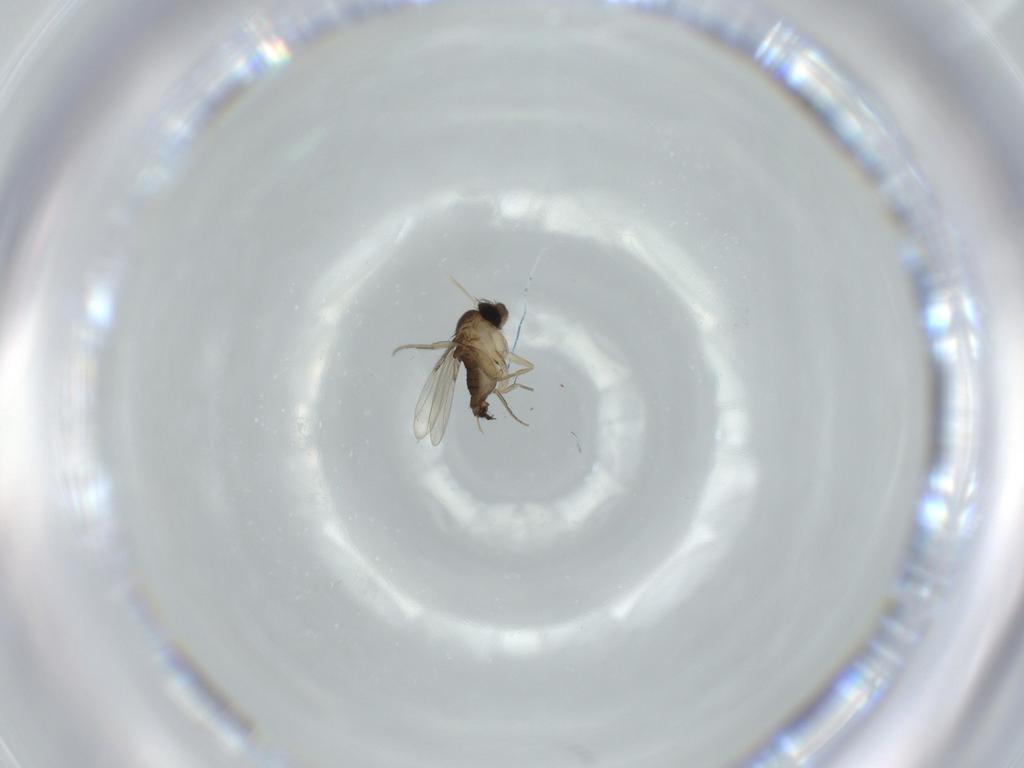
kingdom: Animalia
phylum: Arthropoda
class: Insecta
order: Diptera
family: Phoridae
